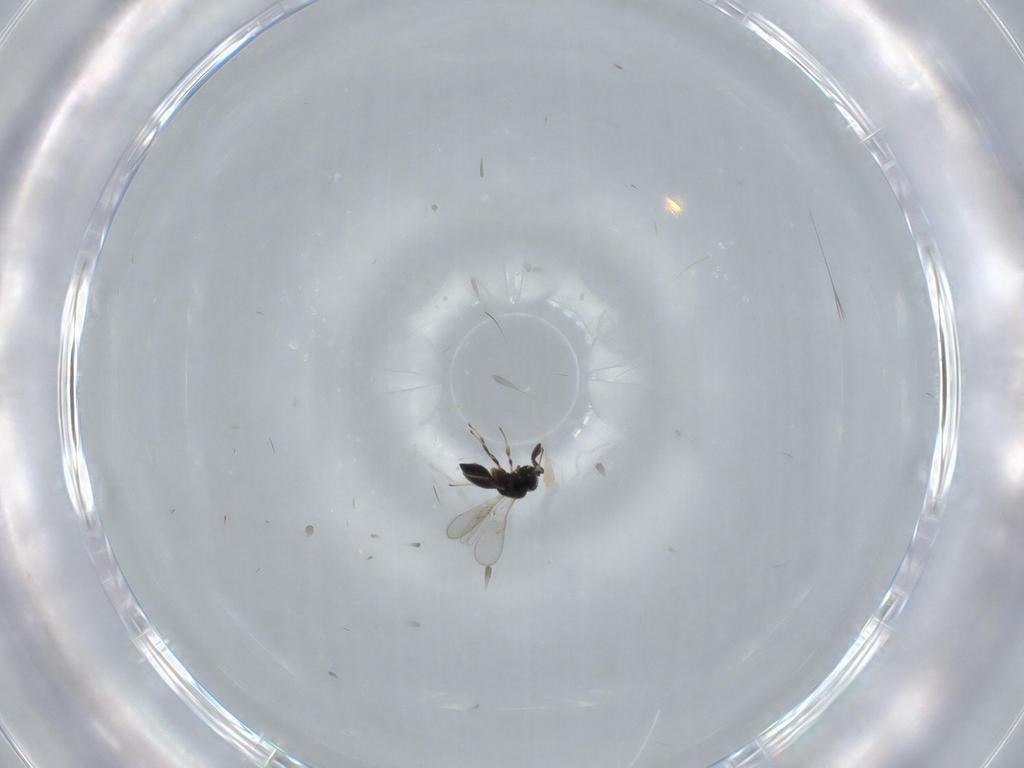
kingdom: Animalia
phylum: Arthropoda
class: Insecta
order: Hymenoptera
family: Scelionidae
